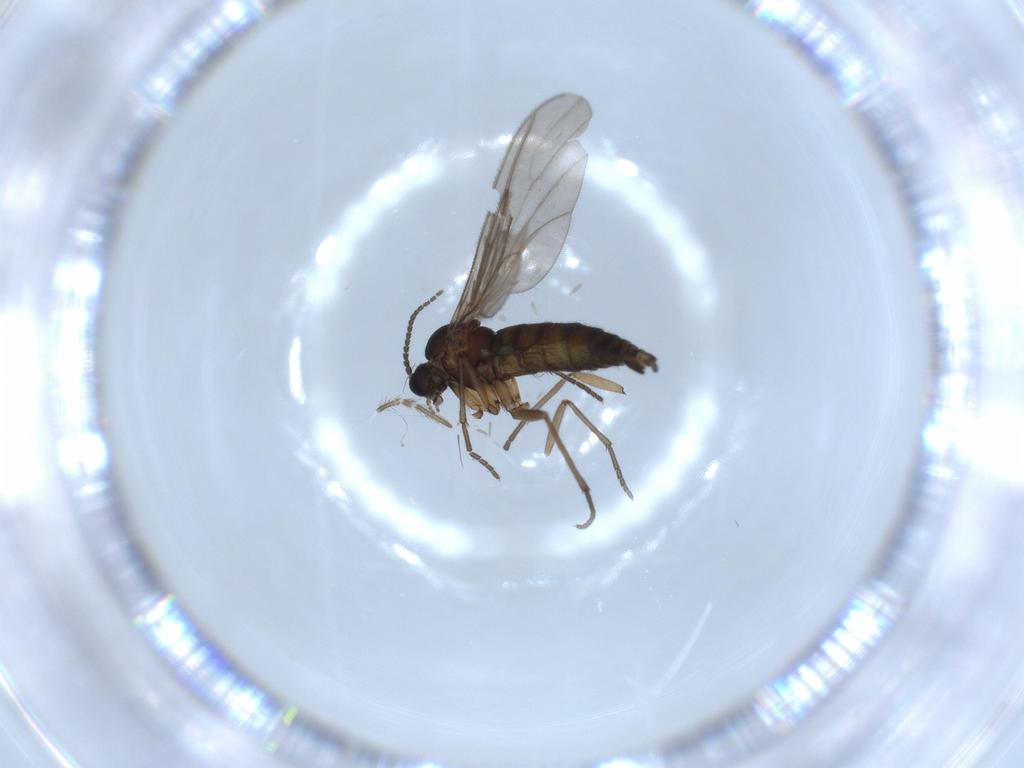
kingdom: Animalia
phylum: Arthropoda
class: Insecta
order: Diptera
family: Sciaridae
